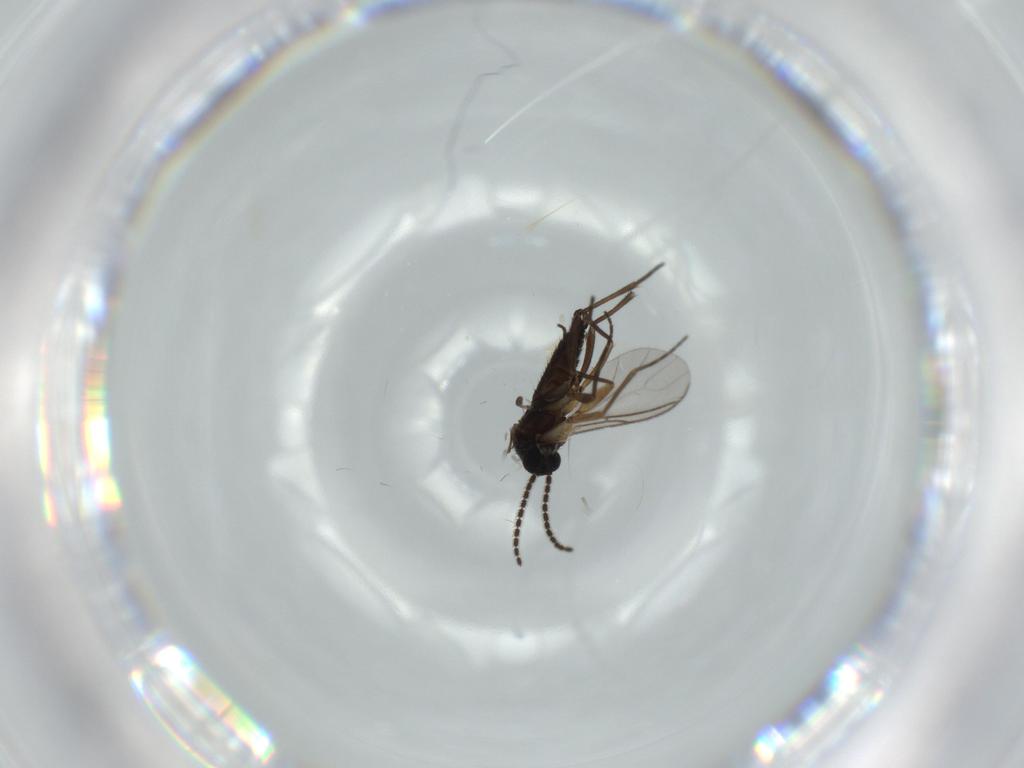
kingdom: Animalia
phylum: Arthropoda
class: Insecta
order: Diptera
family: Sciaridae
